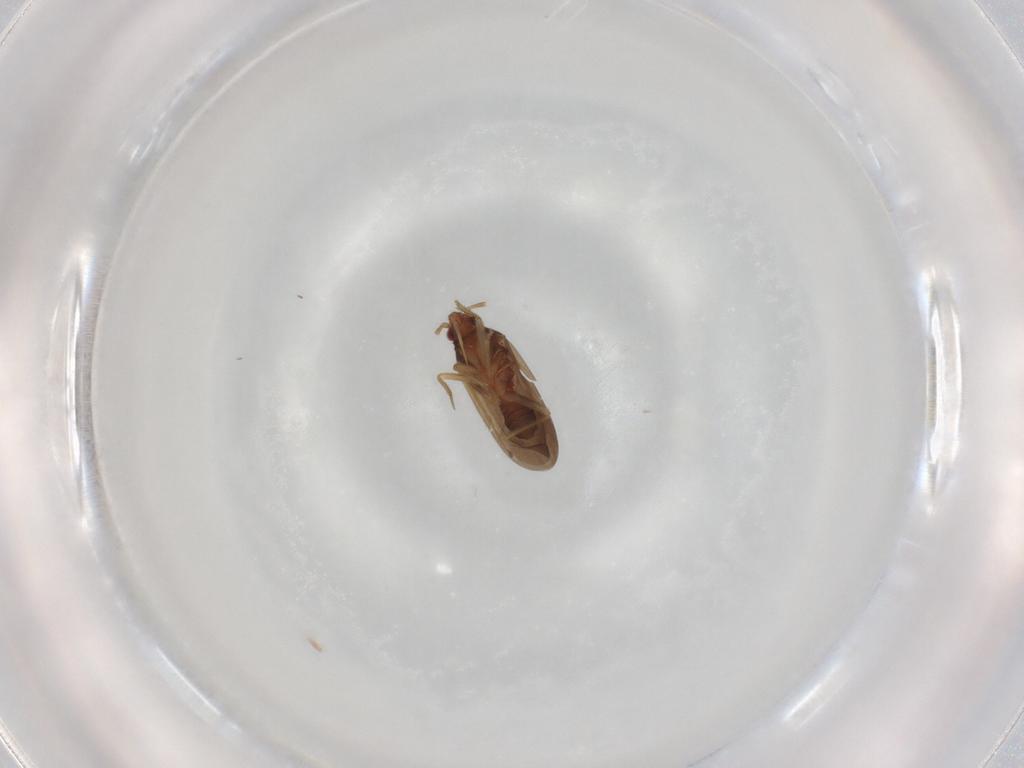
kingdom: Animalia
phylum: Arthropoda
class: Insecta
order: Hemiptera
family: Ceratocombidae
